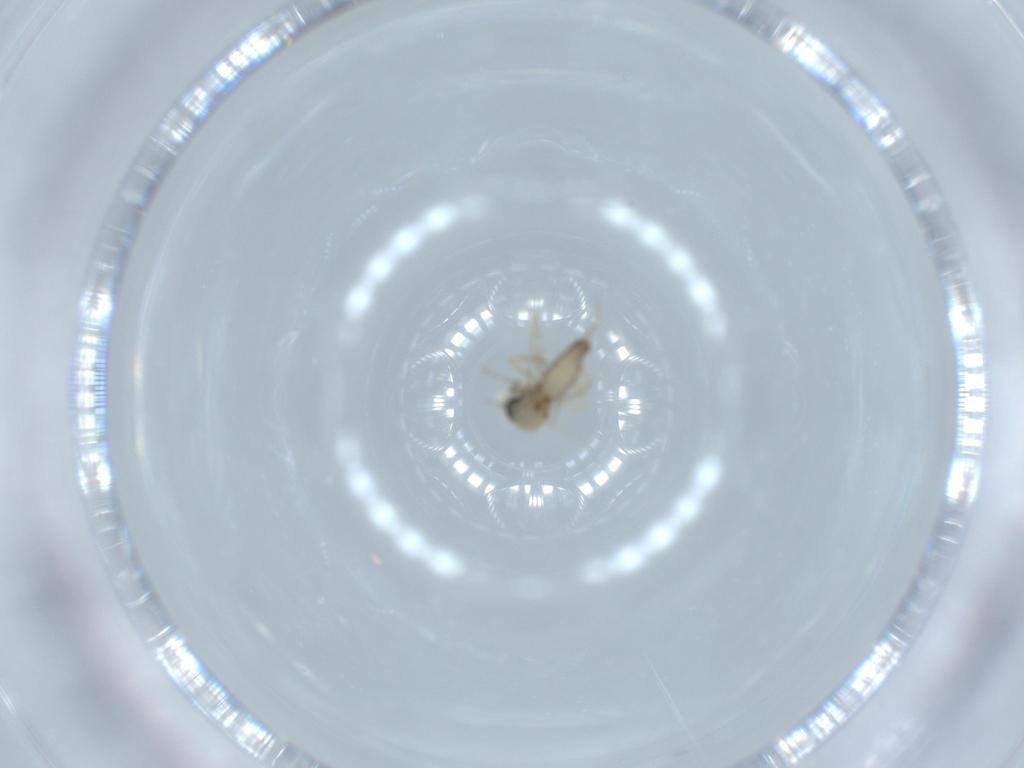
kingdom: Animalia
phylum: Arthropoda
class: Insecta
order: Diptera
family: Ceratopogonidae
